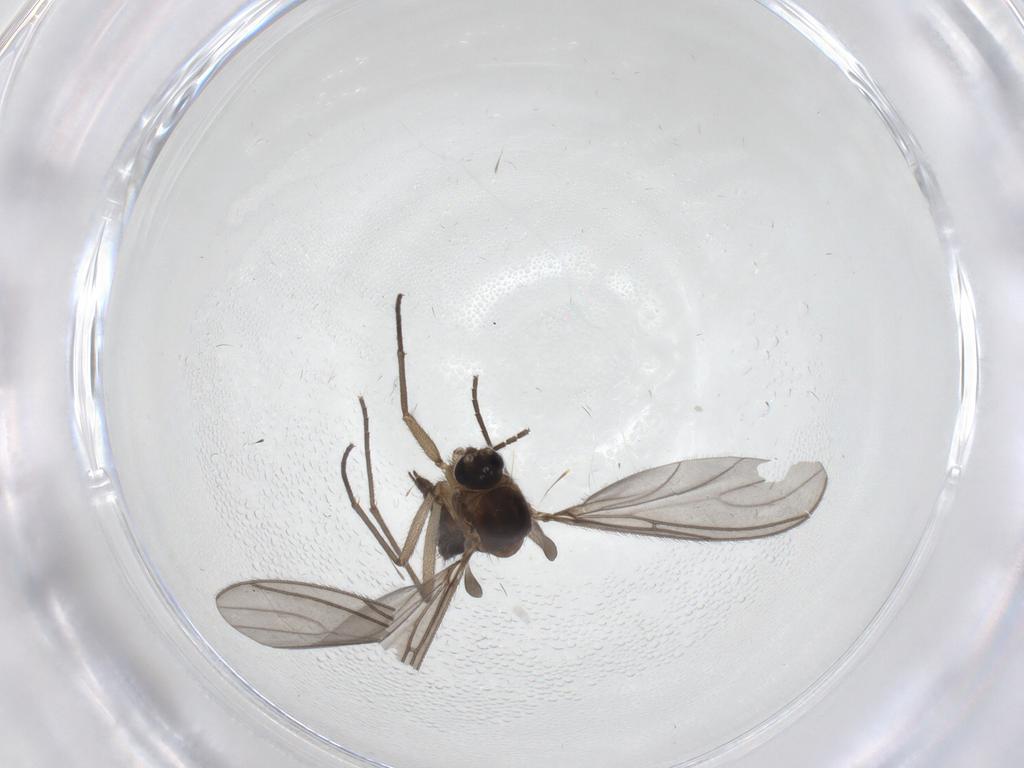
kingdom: Animalia
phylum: Arthropoda
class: Insecta
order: Diptera
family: Cecidomyiidae
